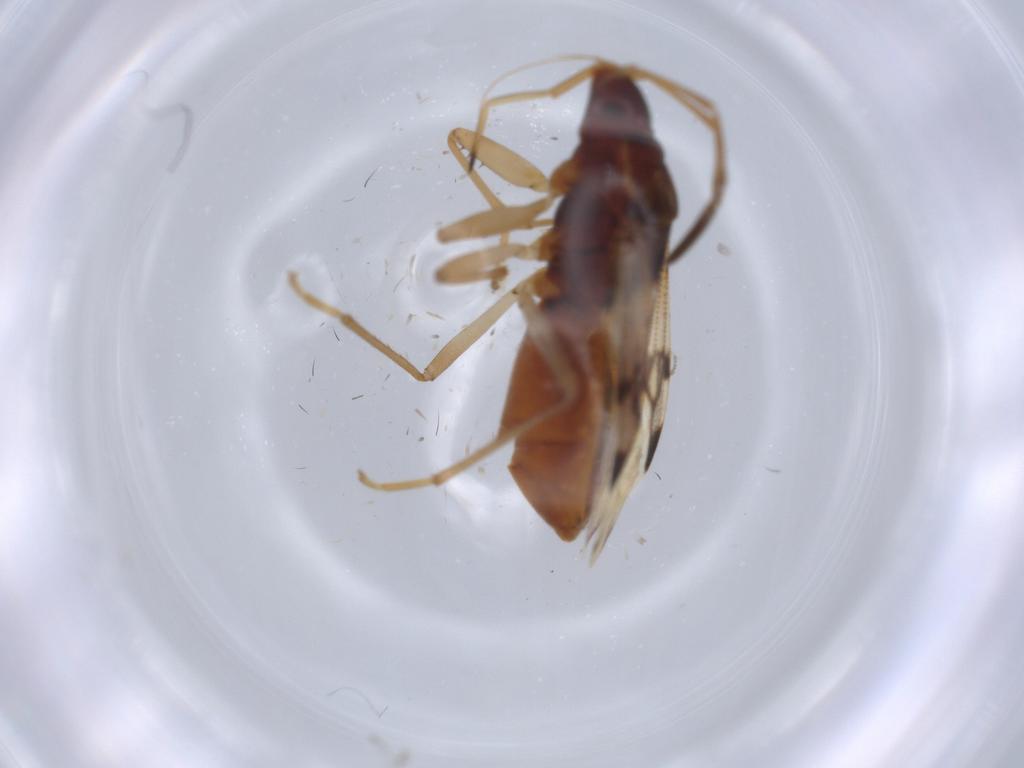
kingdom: Animalia
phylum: Arthropoda
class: Insecta
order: Hemiptera
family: Rhyparochromidae
